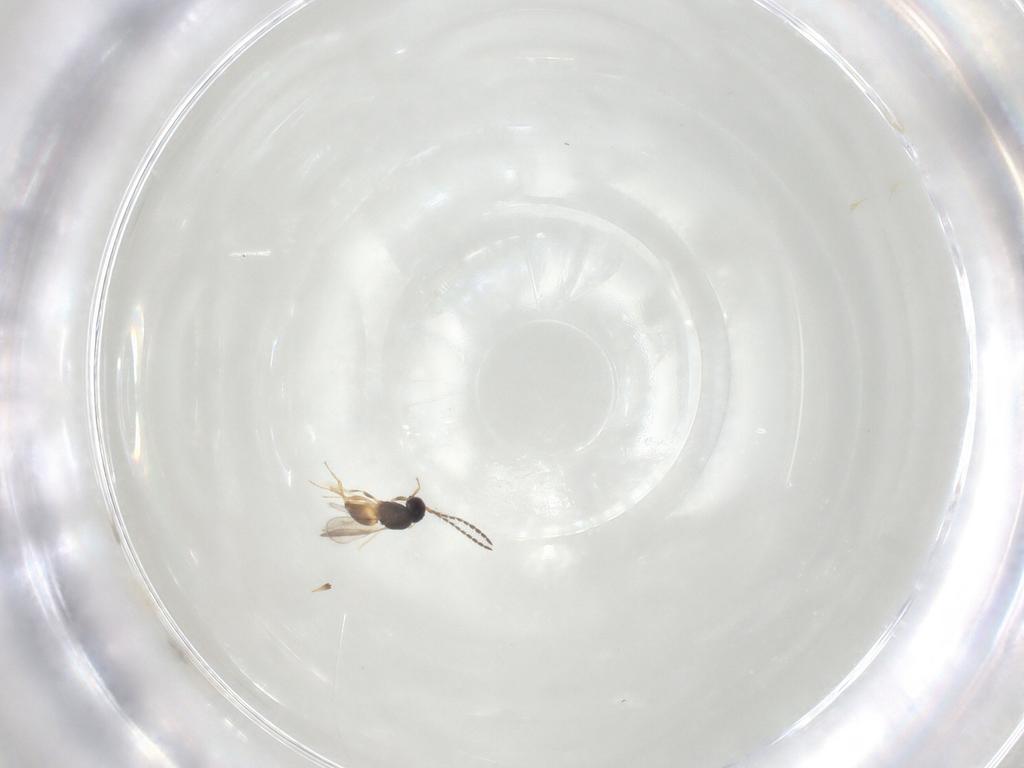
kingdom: Animalia
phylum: Arthropoda
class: Insecta
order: Hymenoptera
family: Ceraphronidae
